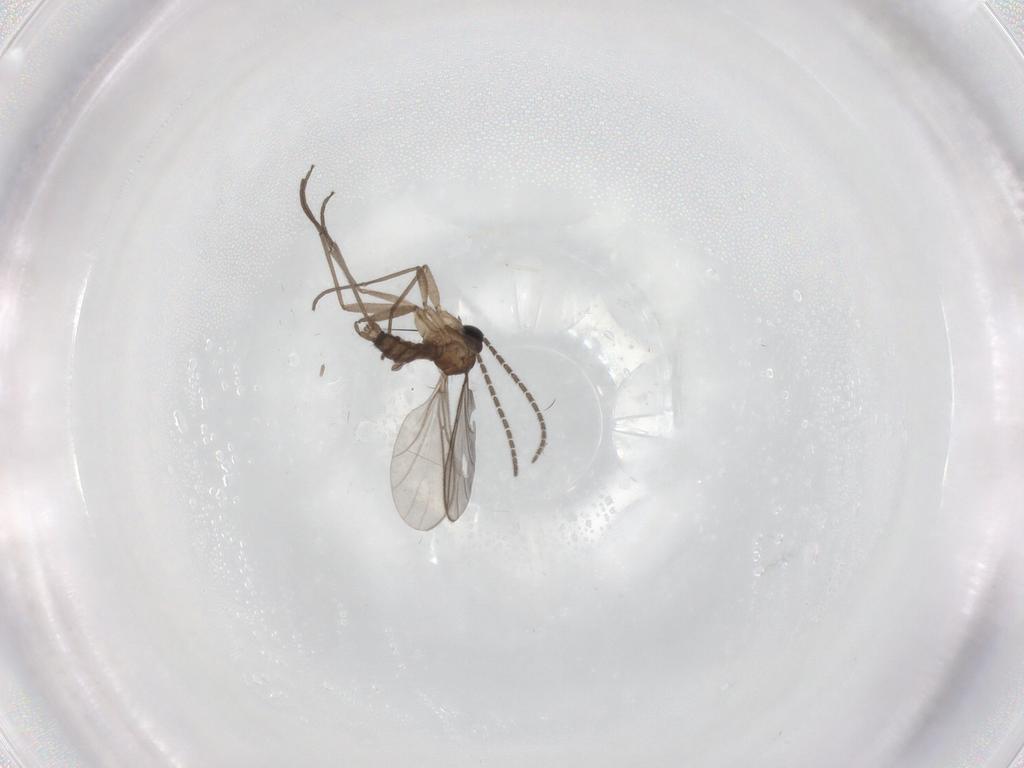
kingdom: Animalia
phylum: Arthropoda
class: Insecta
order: Diptera
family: Sciaridae
